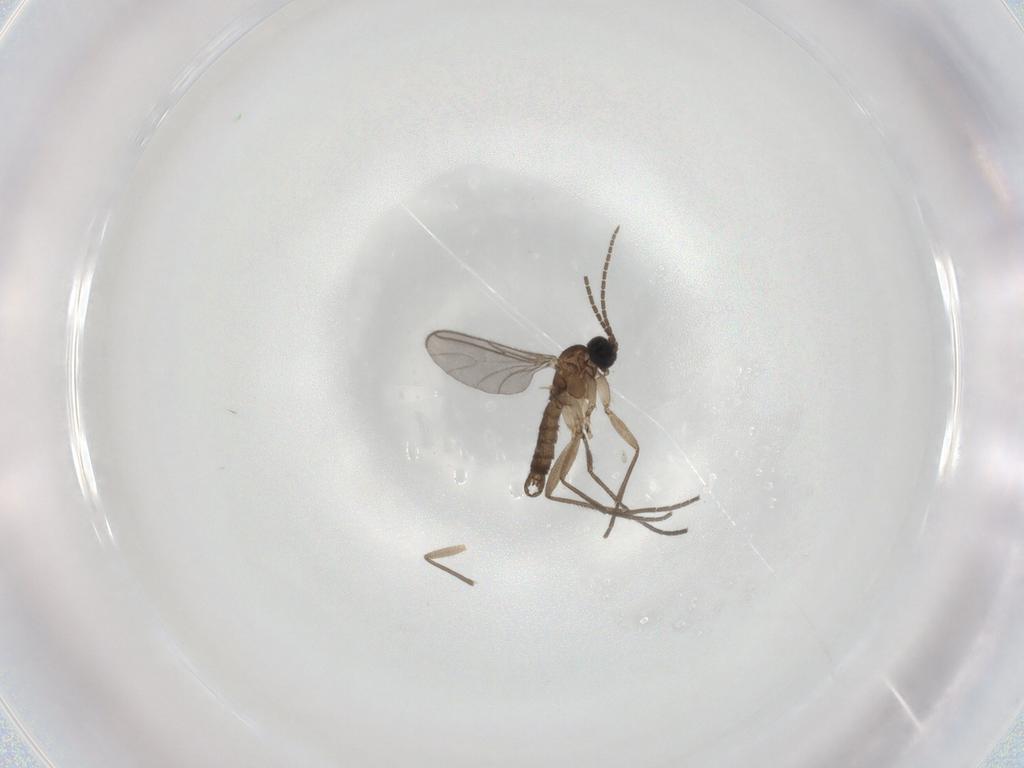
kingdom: Animalia
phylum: Arthropoda
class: Insecta
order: Diptera
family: Sciaridae
